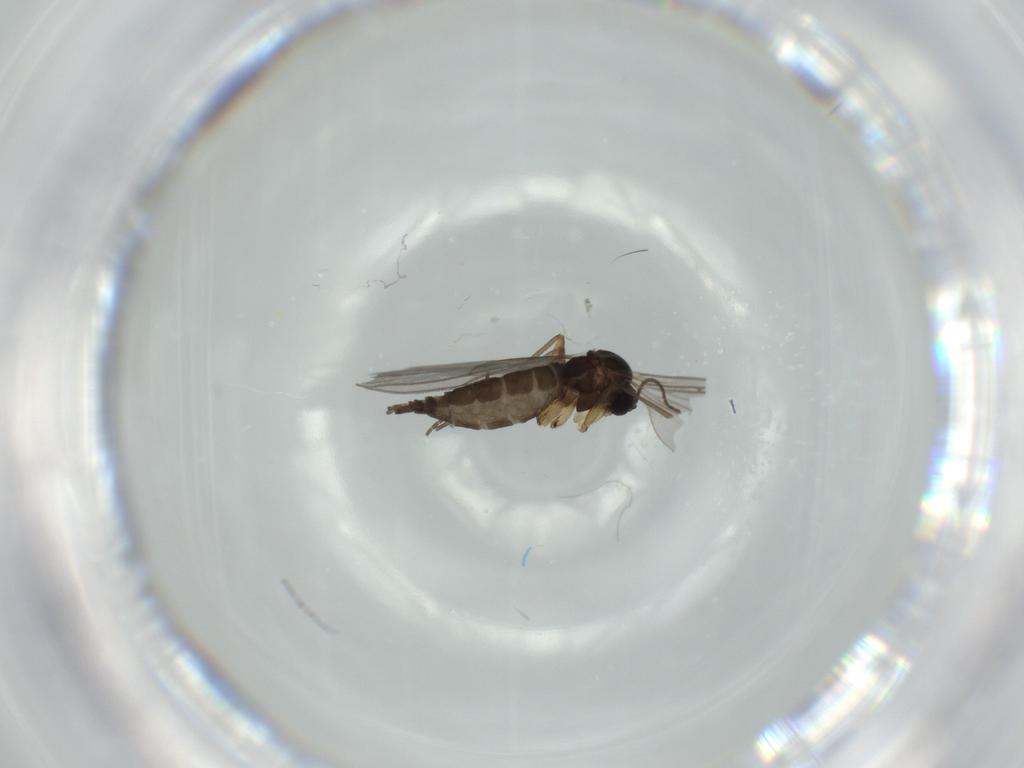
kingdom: Animalia
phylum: Arthropoda
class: Insecta
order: Diptera
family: Sciaridae
